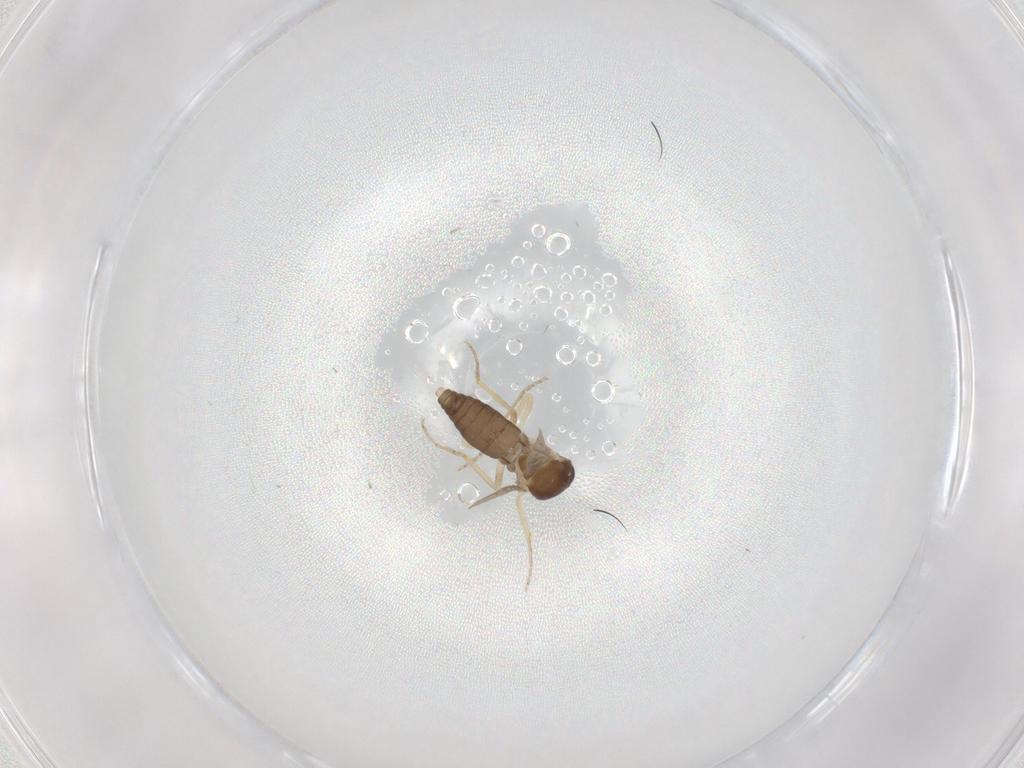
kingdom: Animalia
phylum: Arthropoda
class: Insecta
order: Diptera
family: Ceratopogonidae
